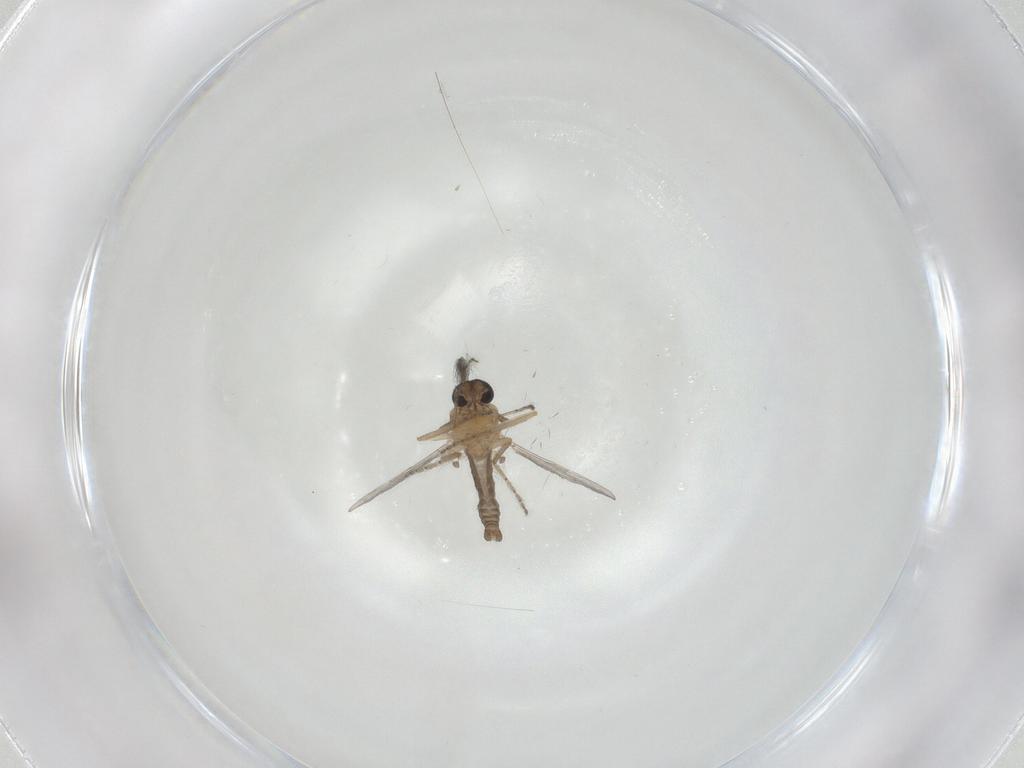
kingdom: Animalia
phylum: Arthropoda
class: Insecta
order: Diptera
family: Ceratopogonidae
